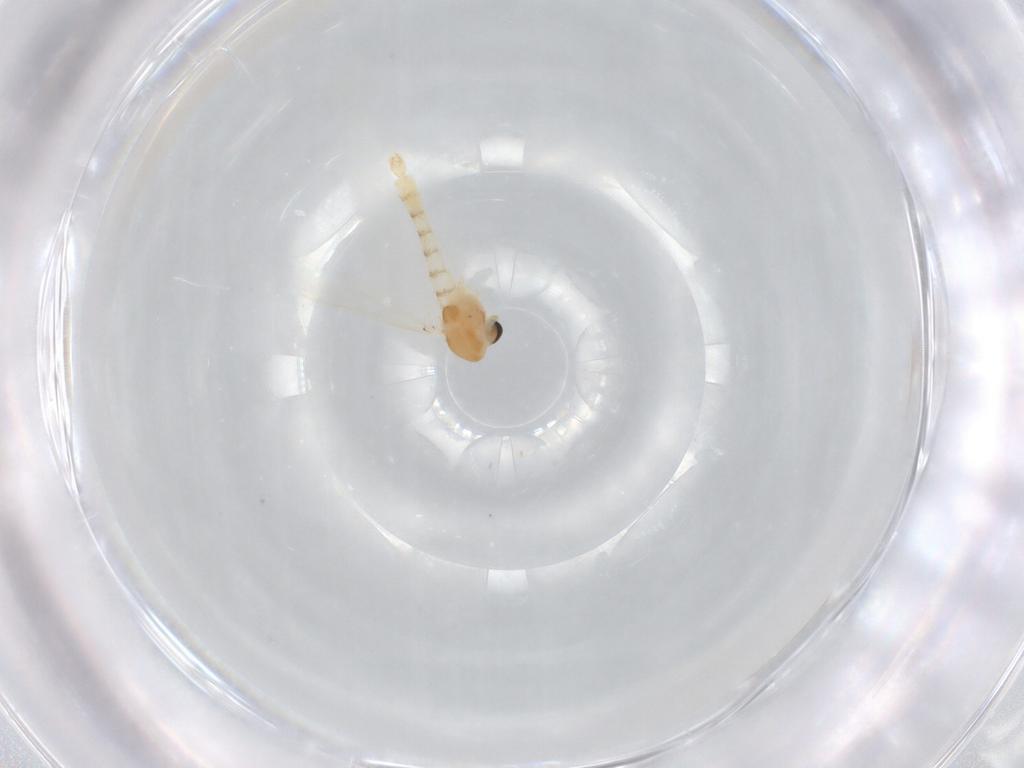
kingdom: Animalia
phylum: Arthropoda
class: Insecta
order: Diptera
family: Chironomidae
